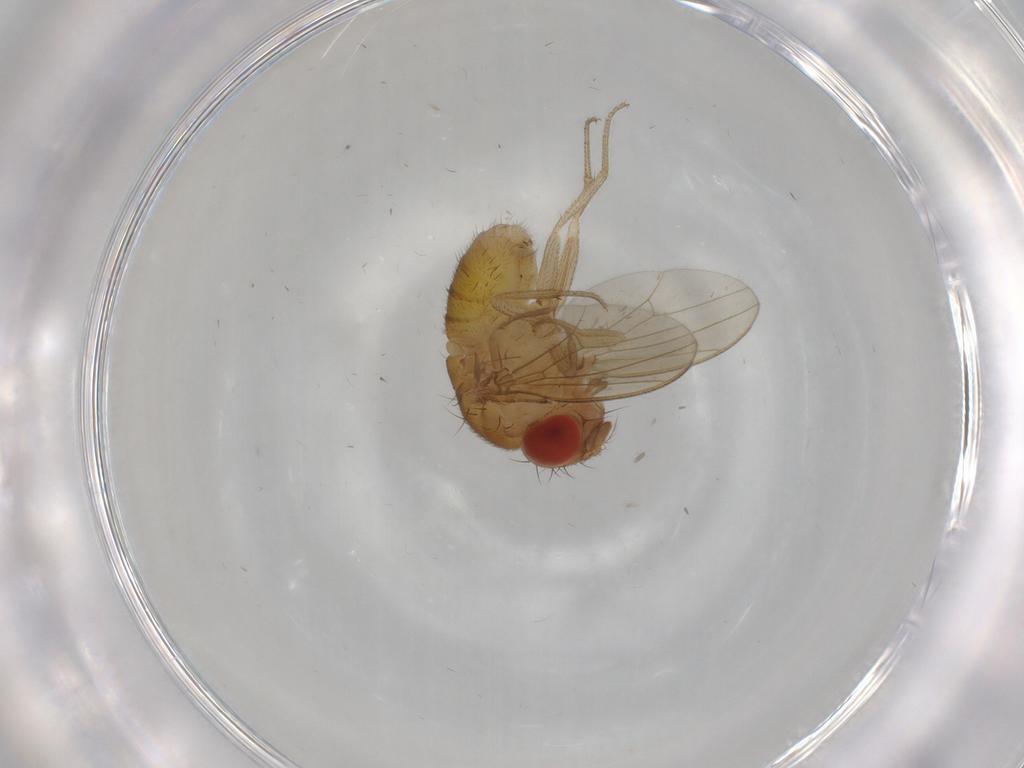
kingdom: Animalia
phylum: Arthropoda
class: Insecta
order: Diptera
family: Drosophilidae
